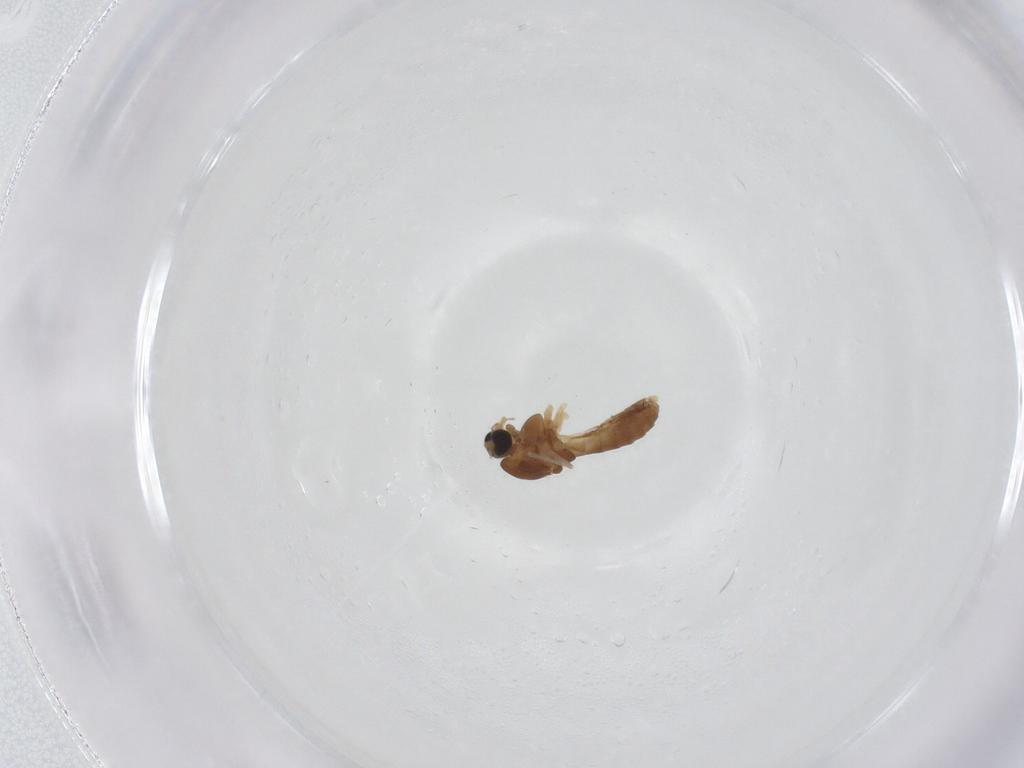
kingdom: Animalia
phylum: Arthropoda
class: Insecta
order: Diptera
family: Chironomidae
